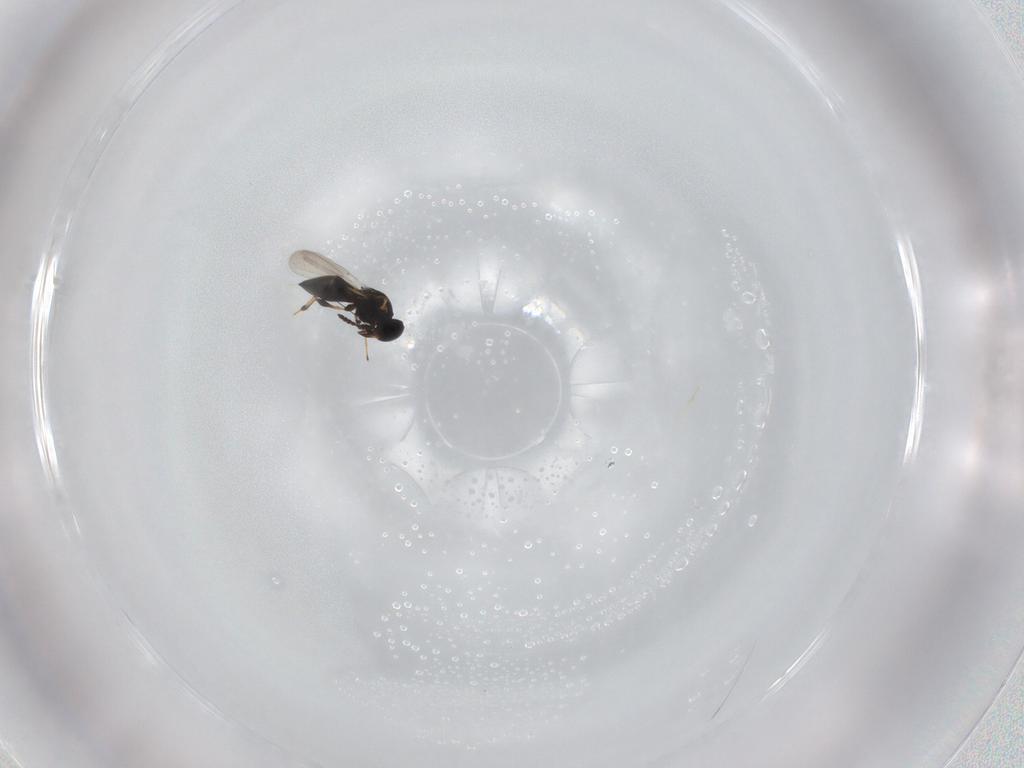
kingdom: Animalia
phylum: Arthropoda
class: Insecta
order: Hymenoptera
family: Platygastridae
